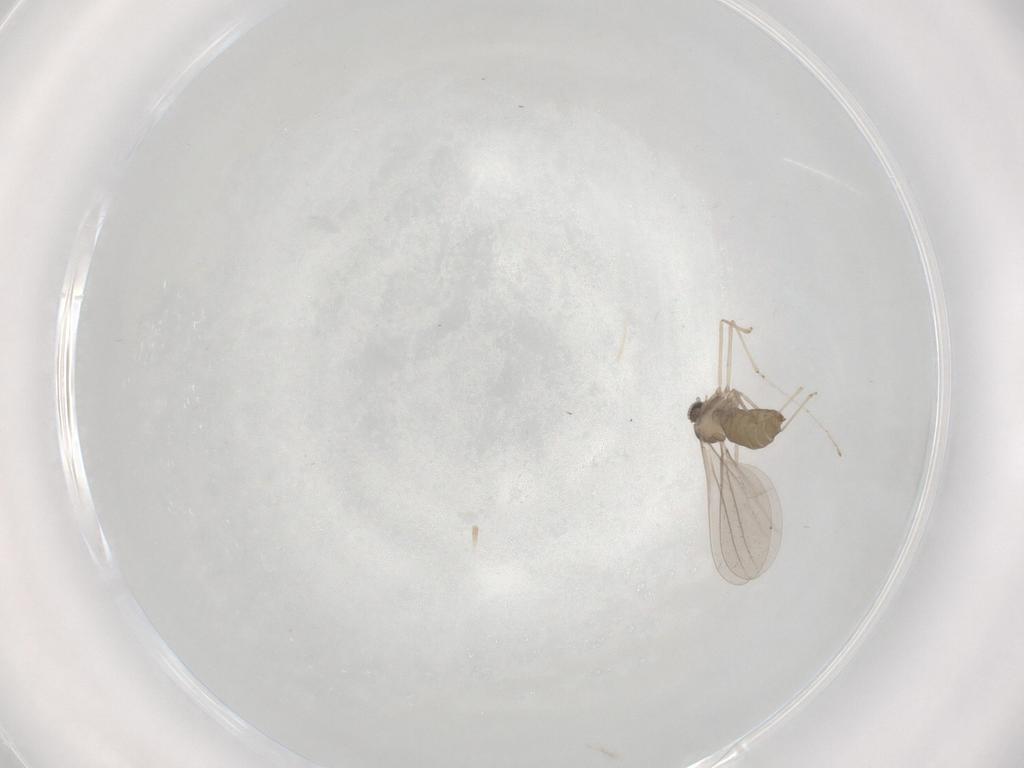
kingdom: Animalia
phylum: Arthropoda
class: Insecta
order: Diptera
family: Cecidomyiidae
